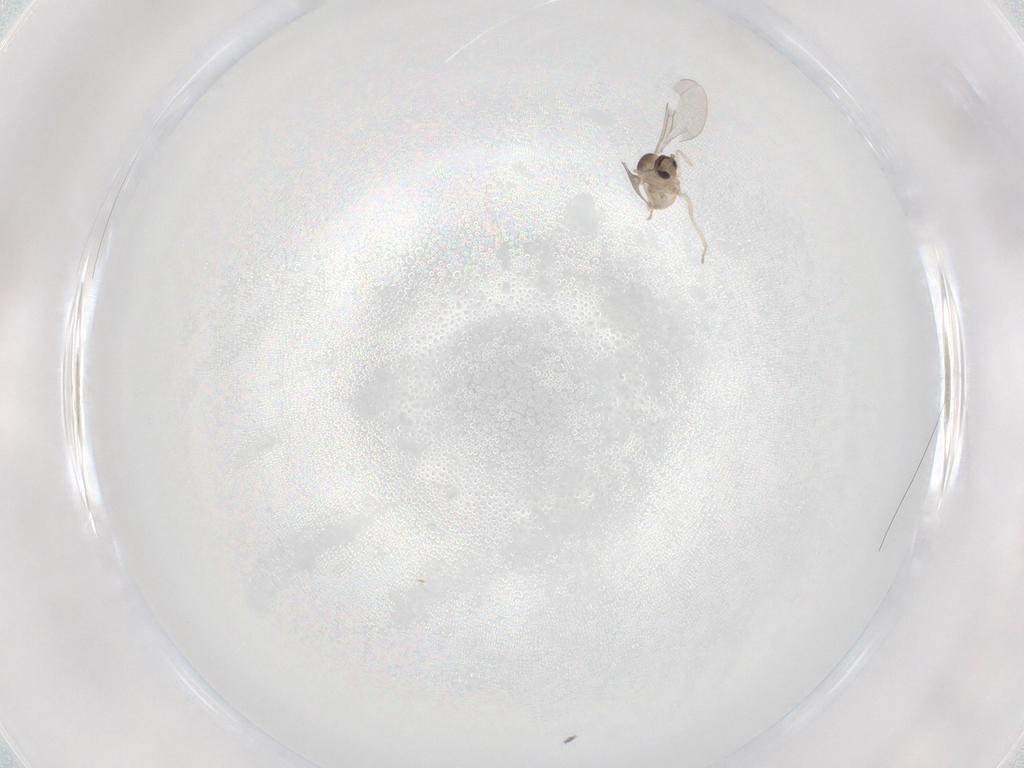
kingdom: Animalia
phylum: Arthropoda
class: Insecta
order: Diptera
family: Cecidomyiidae
